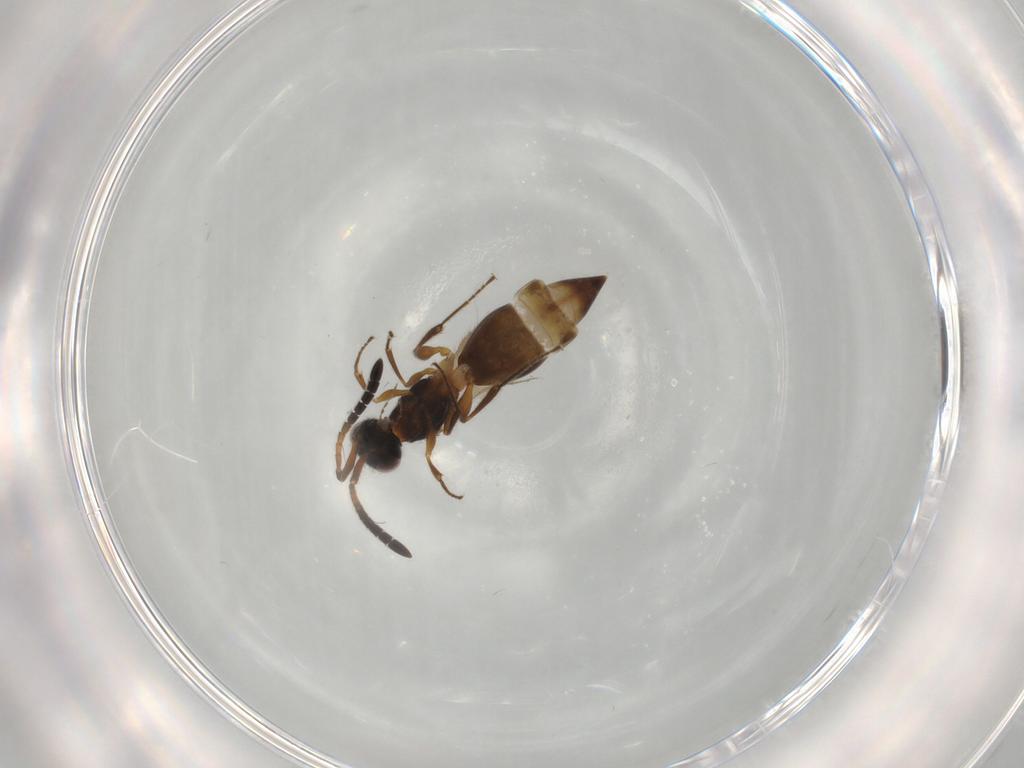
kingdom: Animalia
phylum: Arthropoda
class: Insecta
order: Hymenoptera
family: Megaspilidae
